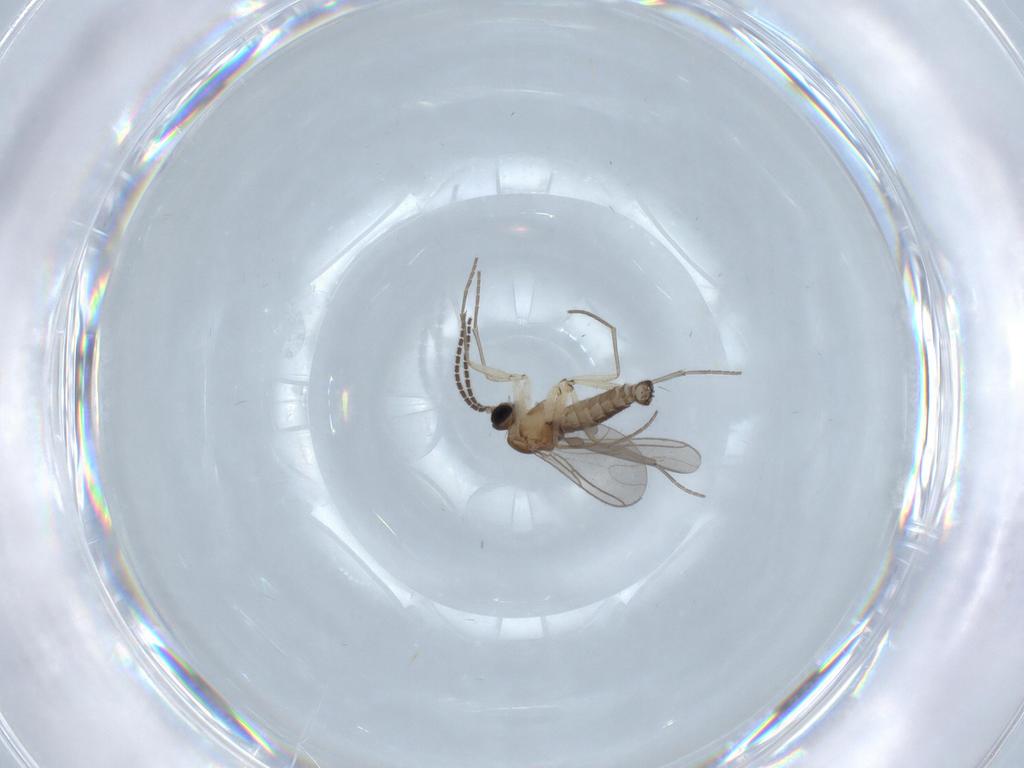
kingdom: Animalia
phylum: Arthropoda
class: Insecta
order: Diptera
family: Sciaridae
